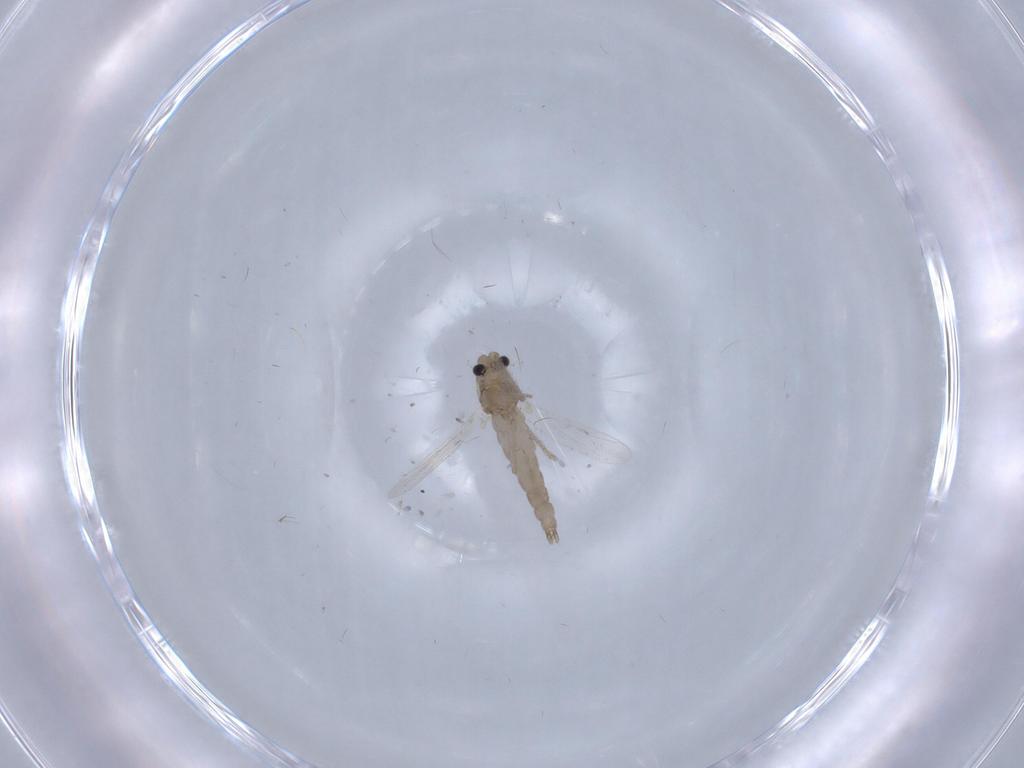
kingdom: Animalia
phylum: Arthropoda
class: Insecta
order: Diptera
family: Chironomidae
